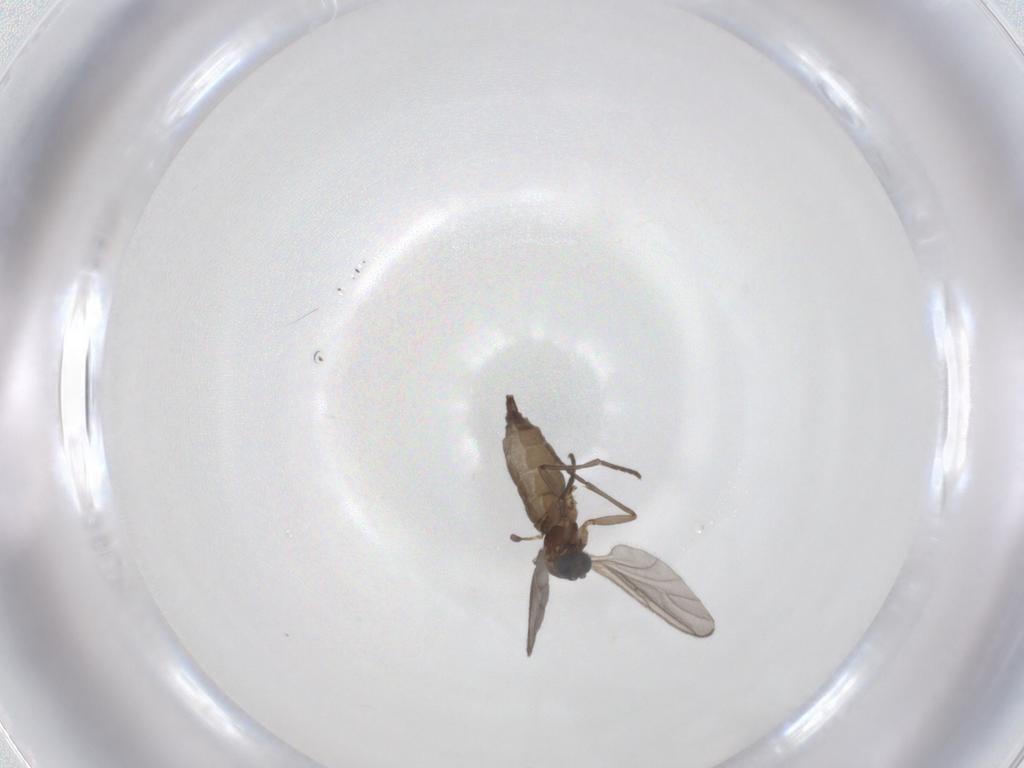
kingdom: Animalia
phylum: Arthropoda
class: Insecta
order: Diptera
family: Sciaridae
